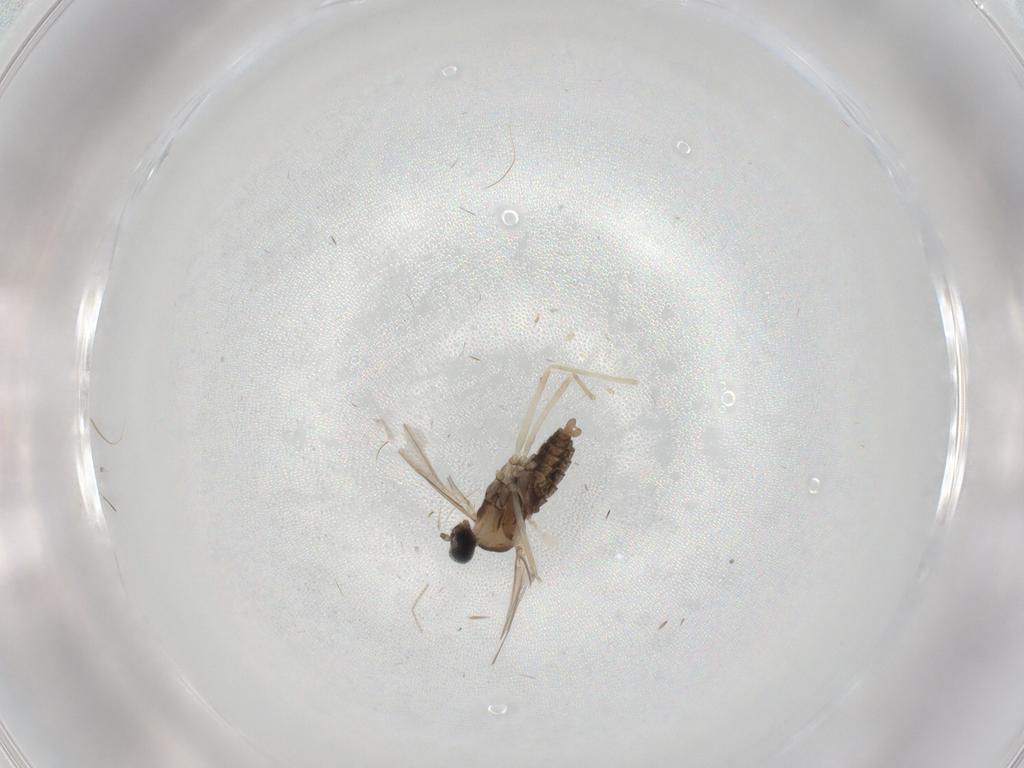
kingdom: Animalia
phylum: Arthropoda
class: Insecta
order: Diptera
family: Cecidomyiidae
